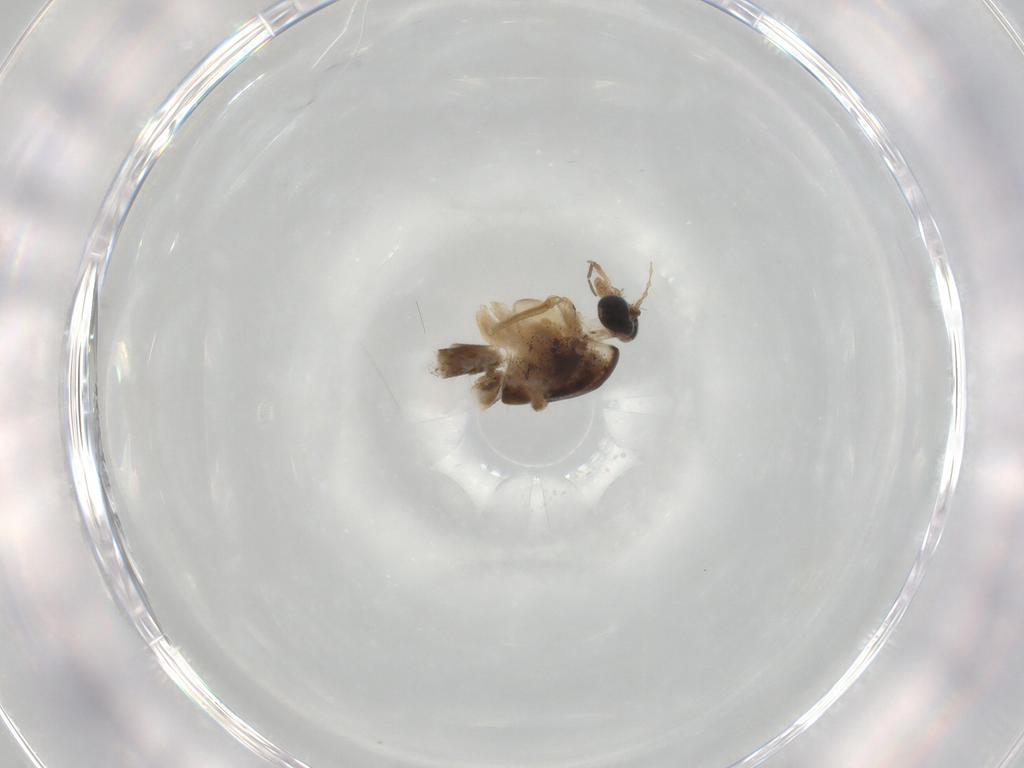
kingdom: Animalia
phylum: Arthropoda
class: Insecta
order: Diptera
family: Chironomidae
